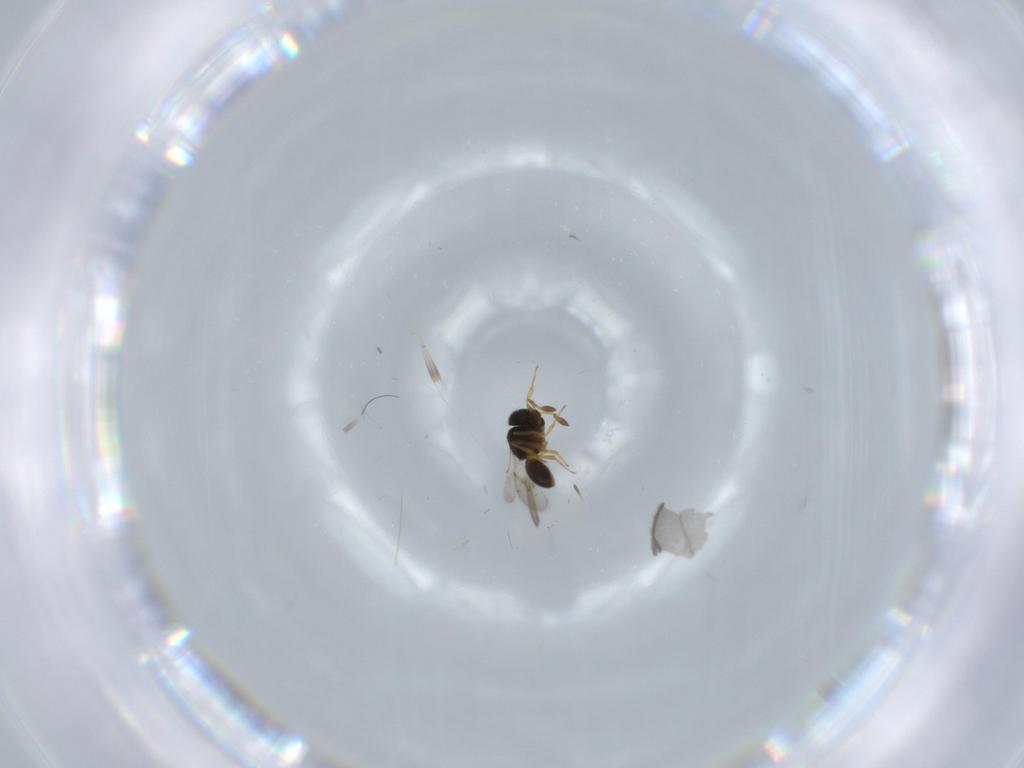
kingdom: Animalia
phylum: Arthropoda
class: Insecta
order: Hymenoptera
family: Scelionidae
